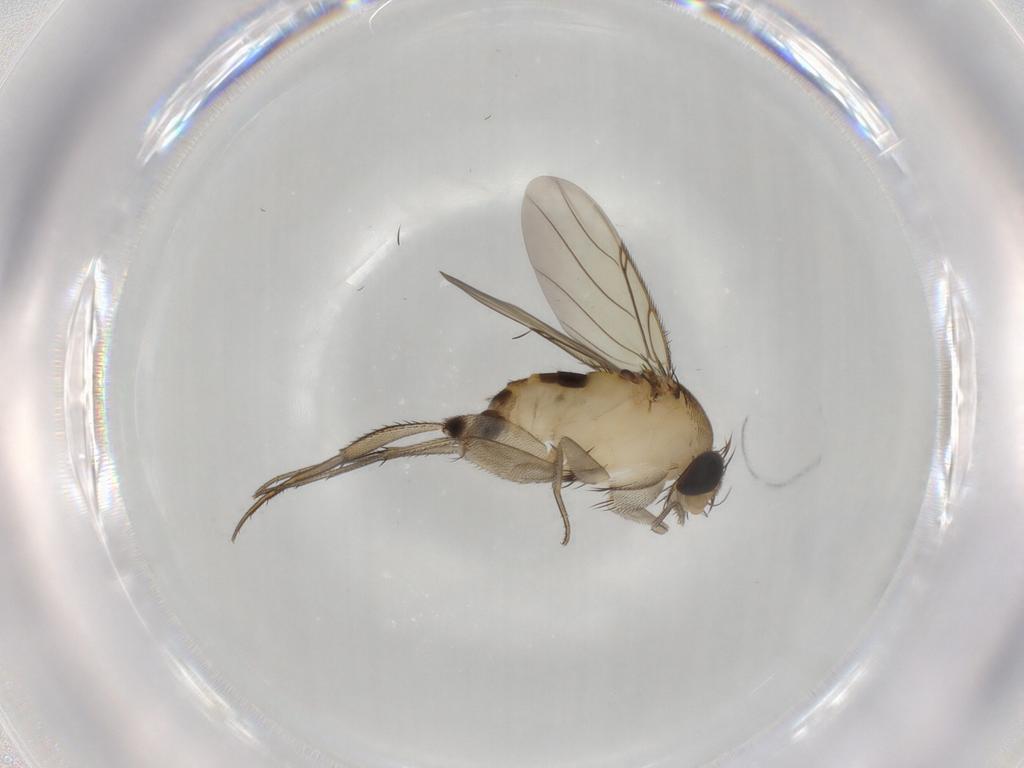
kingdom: Animalia
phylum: Arthropoda
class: Insecta
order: Diptera
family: Phoridae
